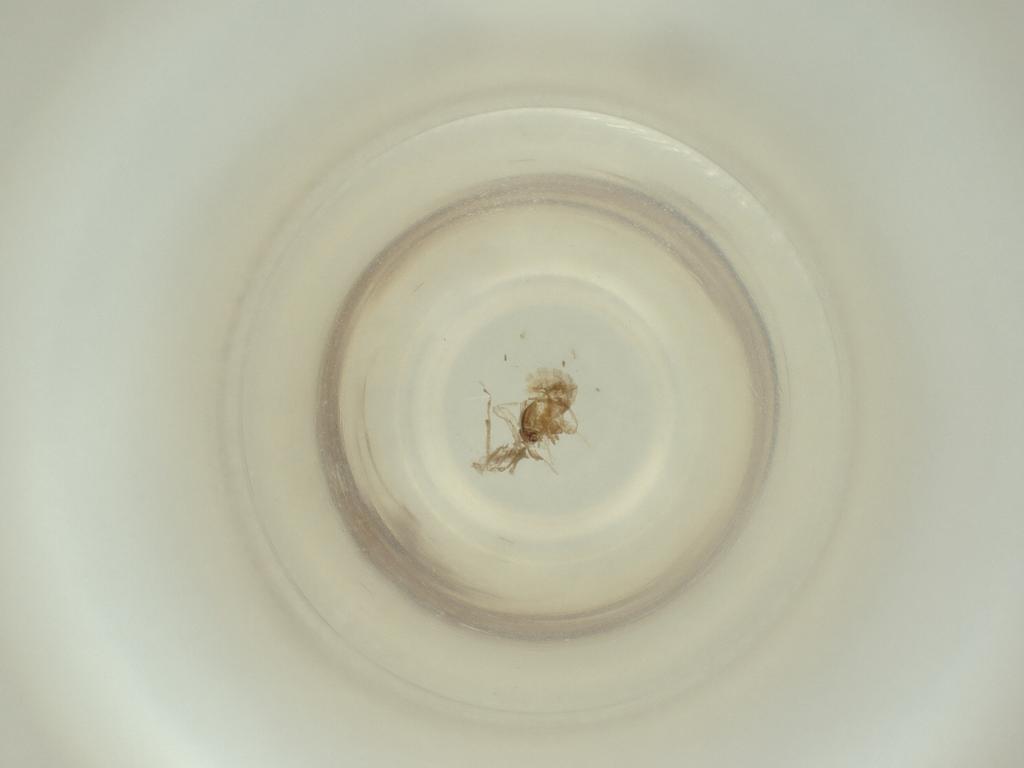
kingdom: Animalia
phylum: Arthropoda
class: Insecta
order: Diptera
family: Cecidomyiidae
